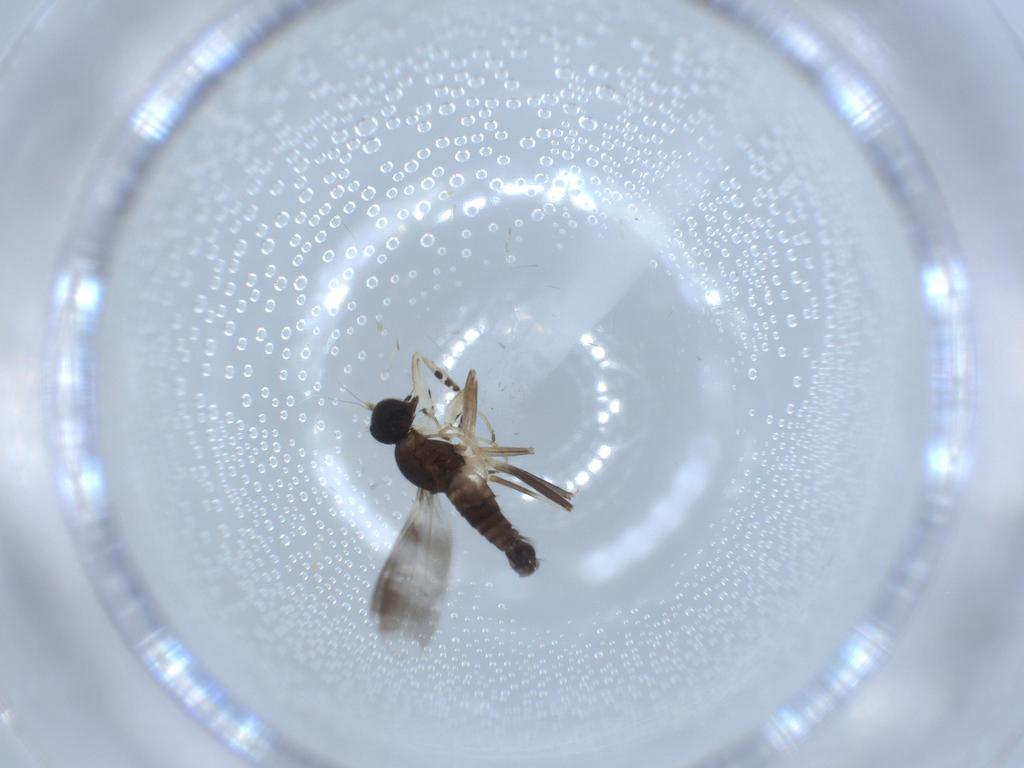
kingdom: Animalia
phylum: Arthropoda
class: Insecta
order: Diptera
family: Hybotidae
